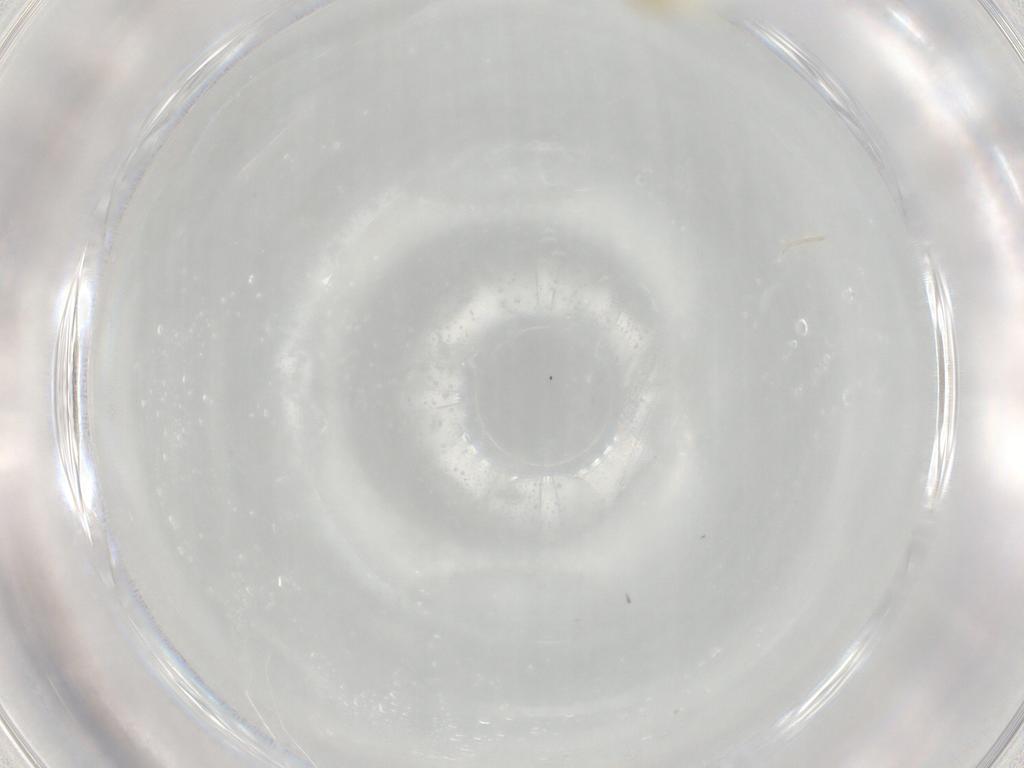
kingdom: Animalia
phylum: Arthropoda
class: Insecta
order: Hemiptera
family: Aleyrodidae
